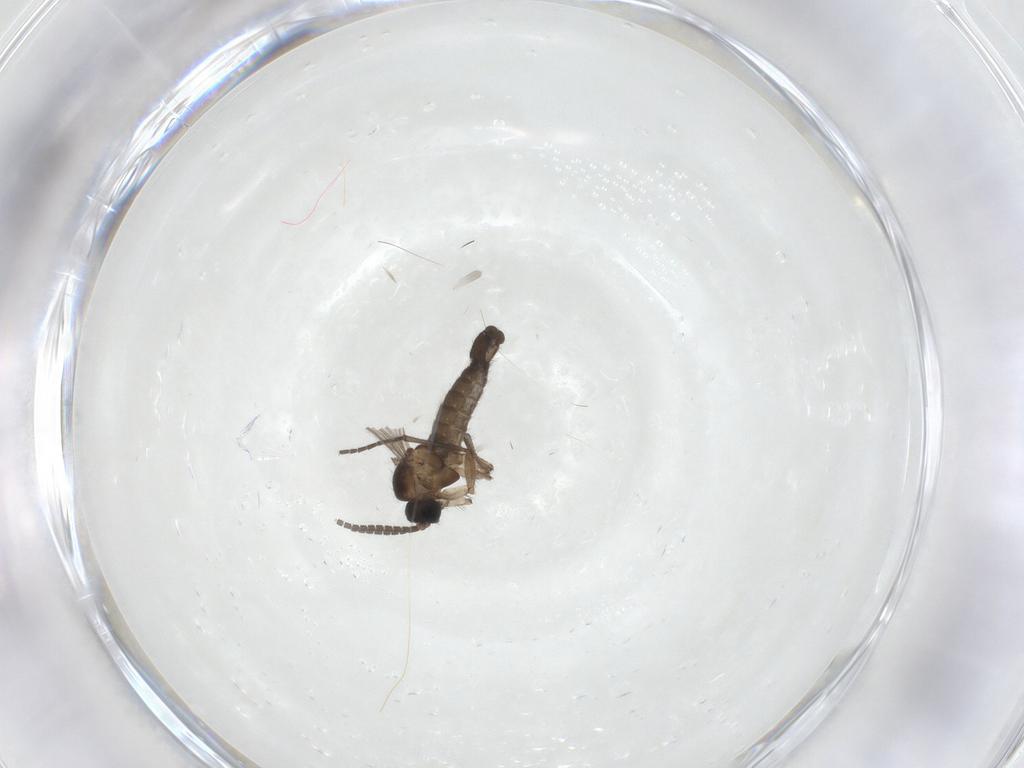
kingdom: Animalia
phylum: Arthropoda
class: Insecta
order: Diptera
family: Sciaridae
